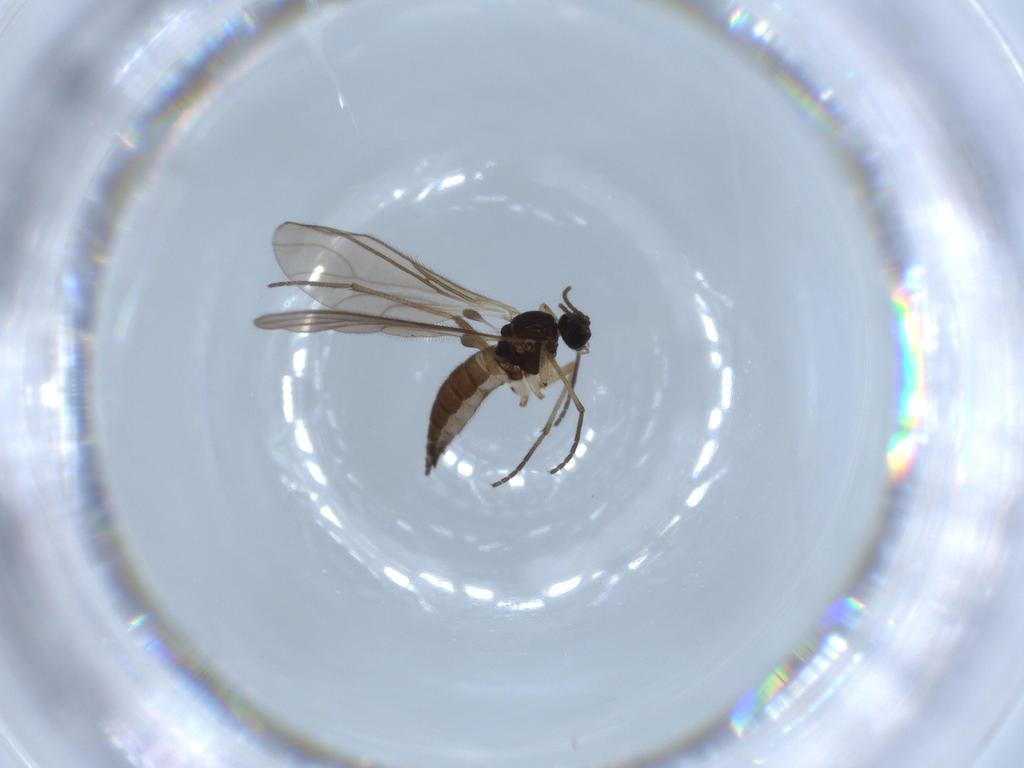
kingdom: Animalia
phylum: Arthropoda
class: Insecta
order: Diptera
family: Sciaridae
